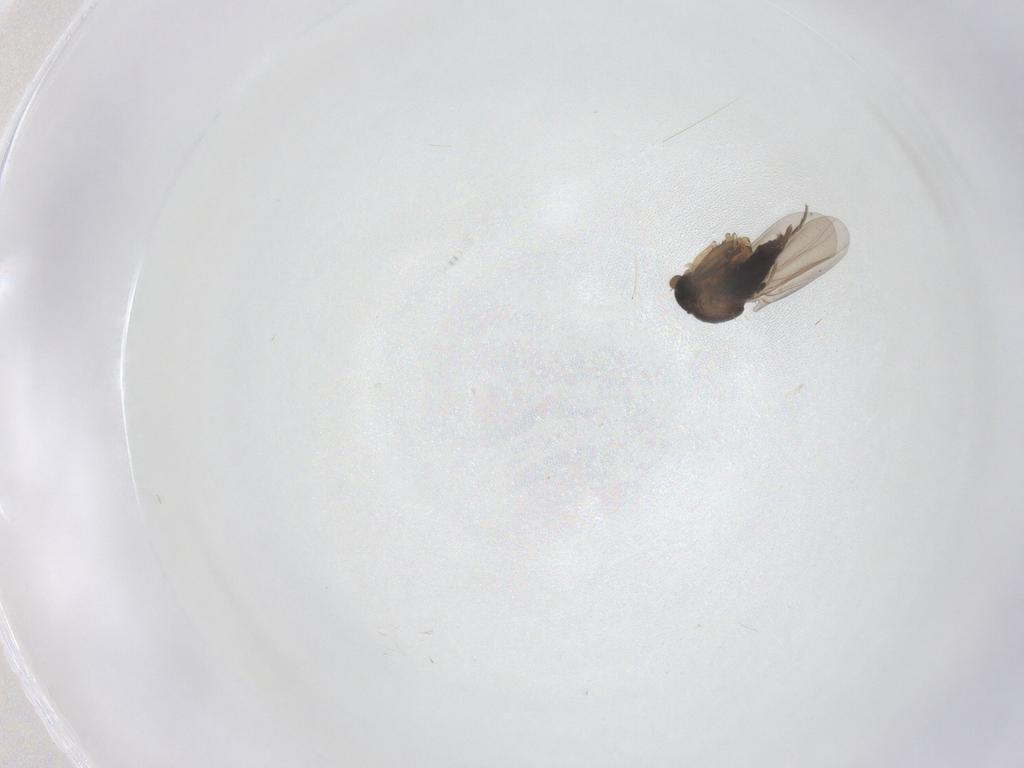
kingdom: Animalia
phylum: Arthropoda
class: Insecta
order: Diptera
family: Phoridae
